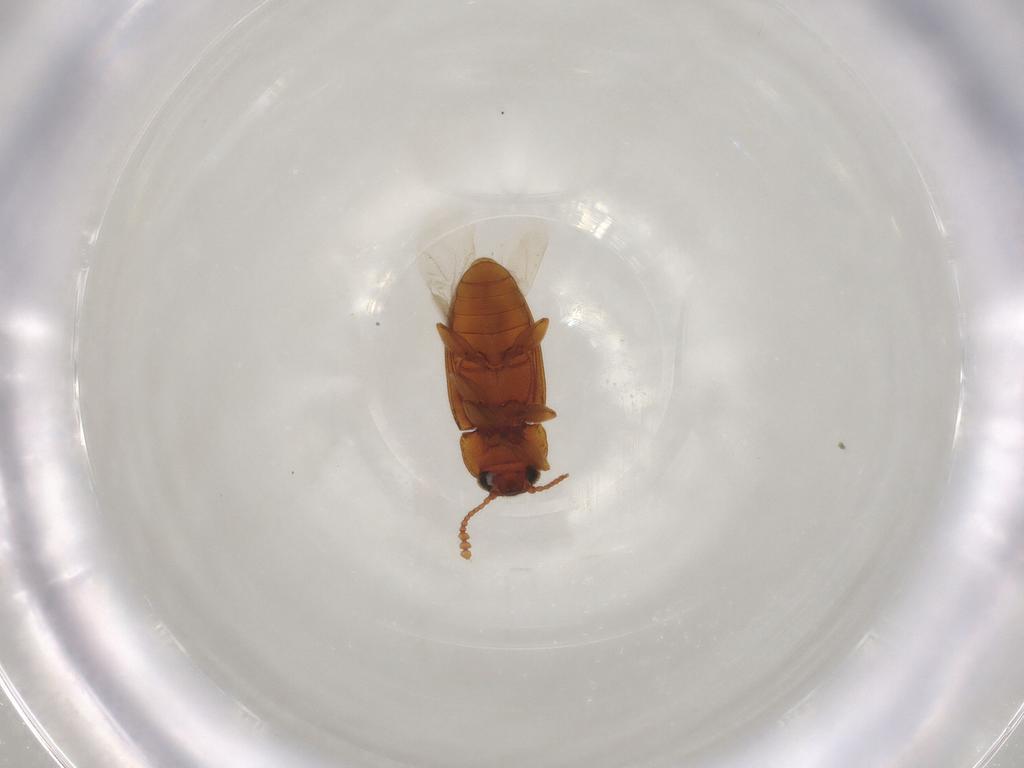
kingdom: Animalia
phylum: Arthropoda
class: Insecta
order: Coleoptera
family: Erotylidae
